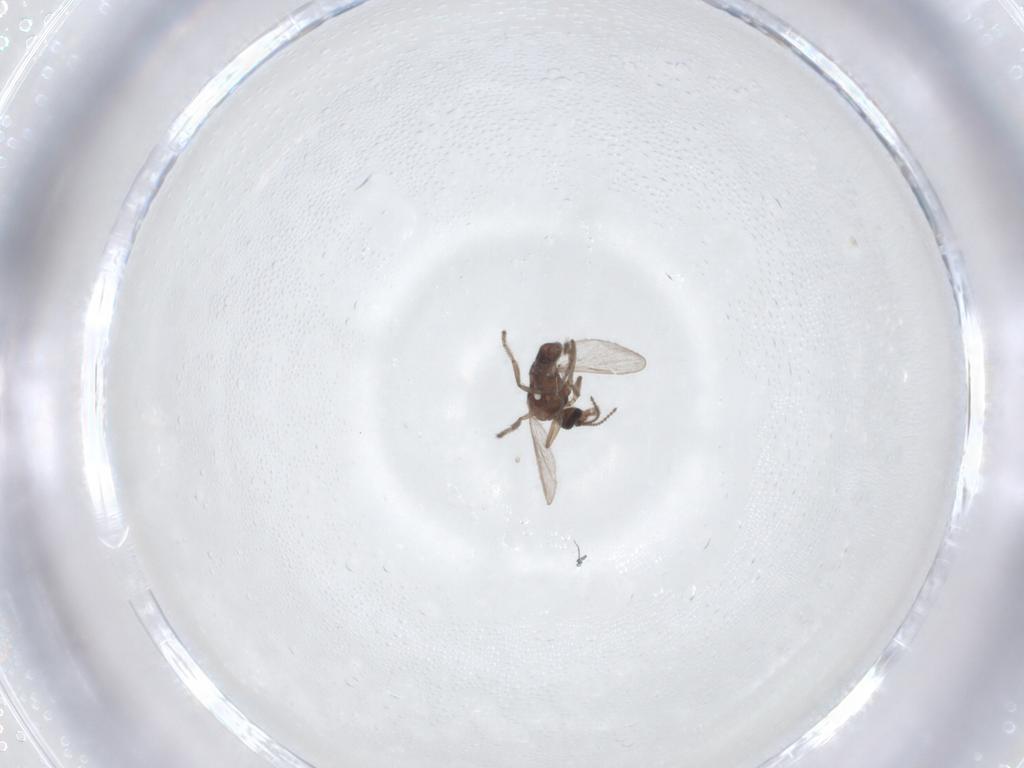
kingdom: Animalia
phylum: Arthropoda
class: Insecta
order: Diptera
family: Ceratopogonidae
